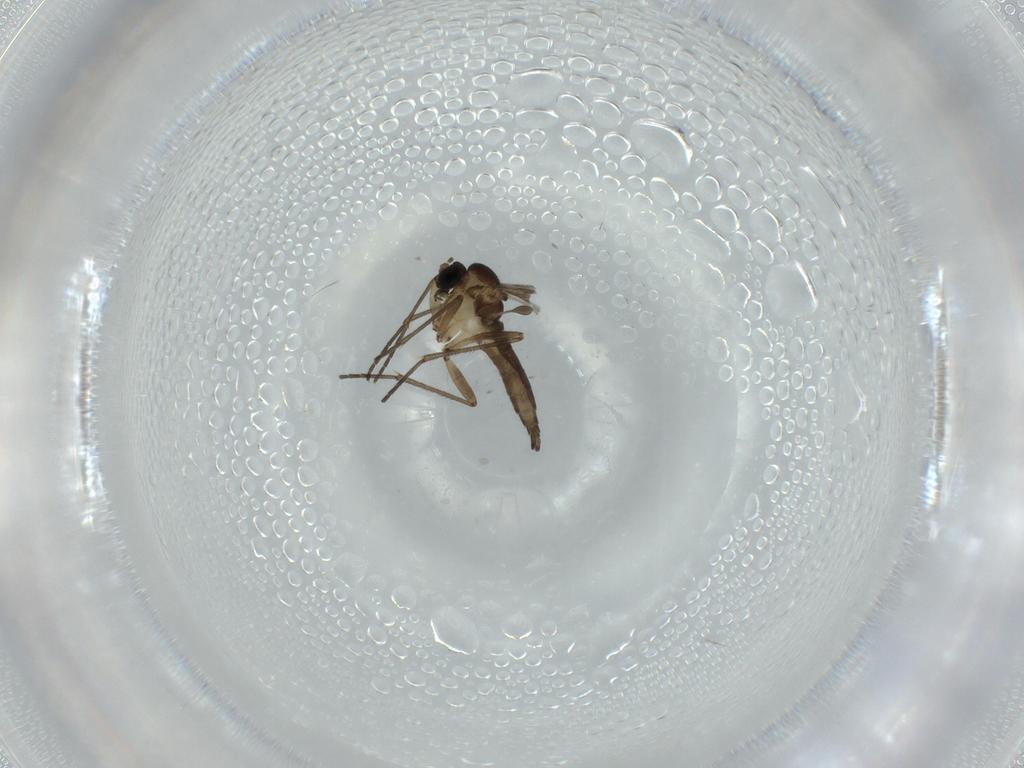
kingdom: Animalia
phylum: Arthropoda
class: Insecta
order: Diptera
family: Sciaridae
